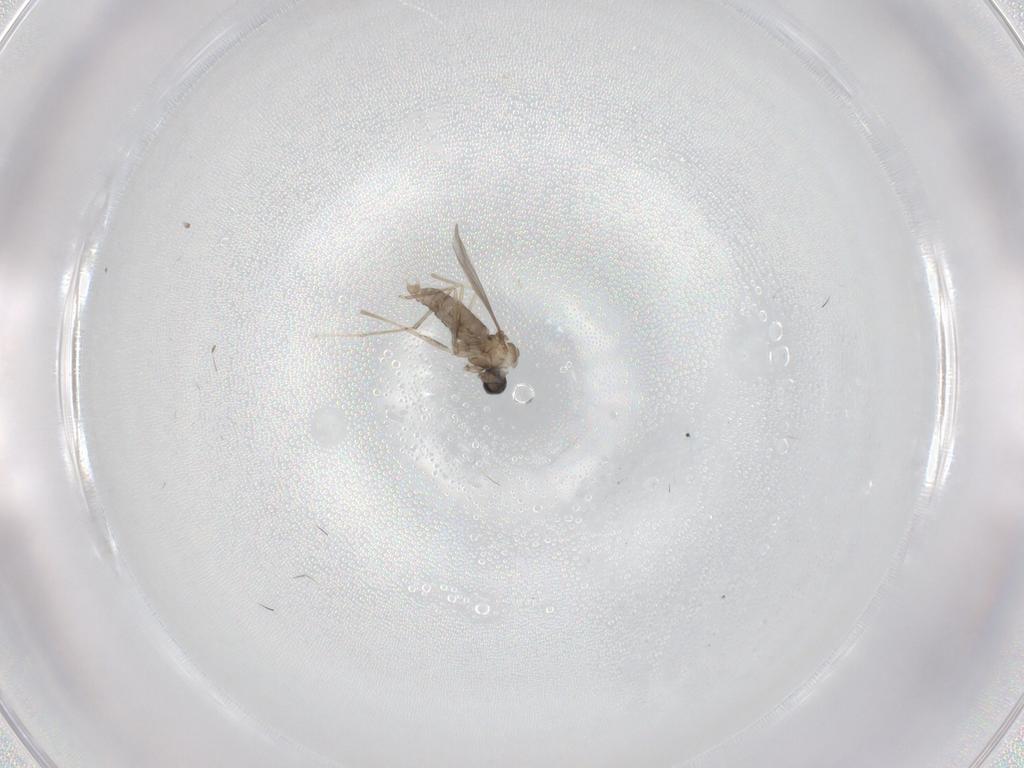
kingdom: Animalia
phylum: Arthropoda
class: Insecta
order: Diptera
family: Cecidomyiidae
